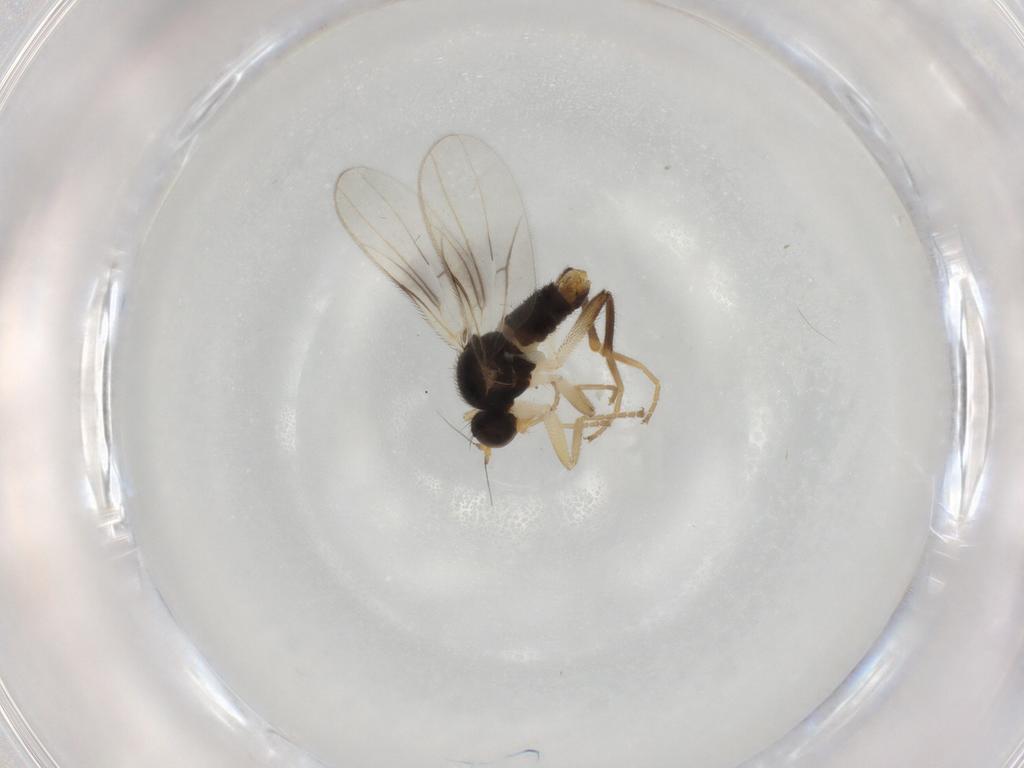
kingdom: Animalia
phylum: Arthropoda
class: Insecta
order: Diptera
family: Hybotidae
